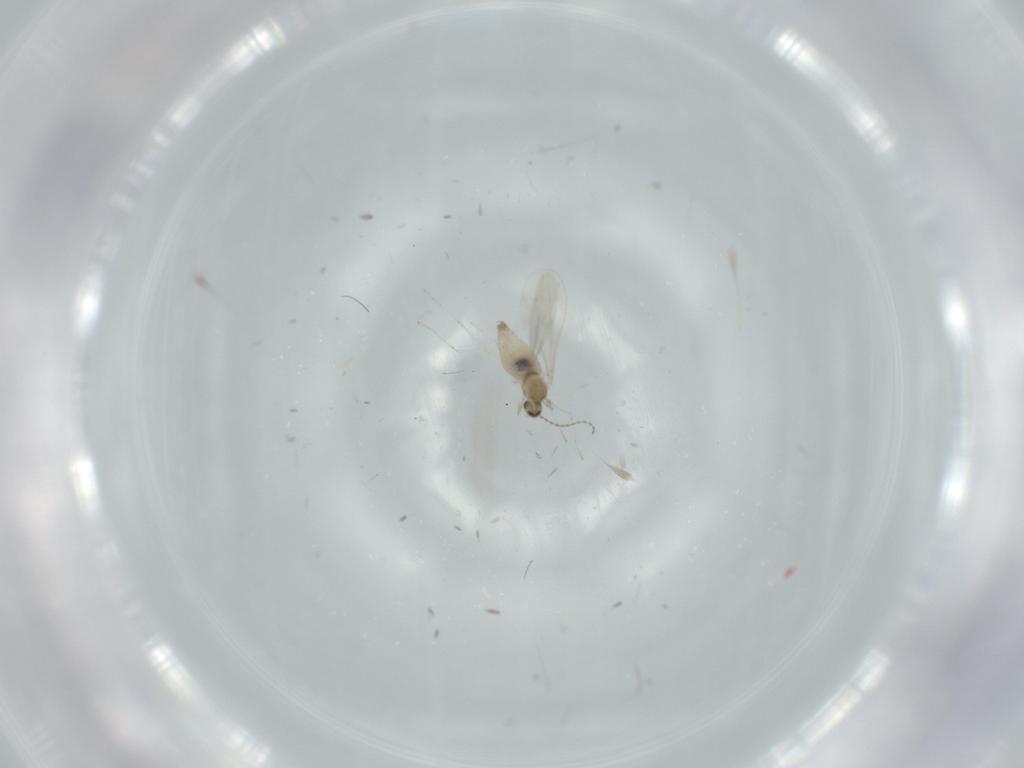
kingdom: Animalia
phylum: Arthropoda
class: Insecta
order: Diptera
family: Cecidomyiidae
